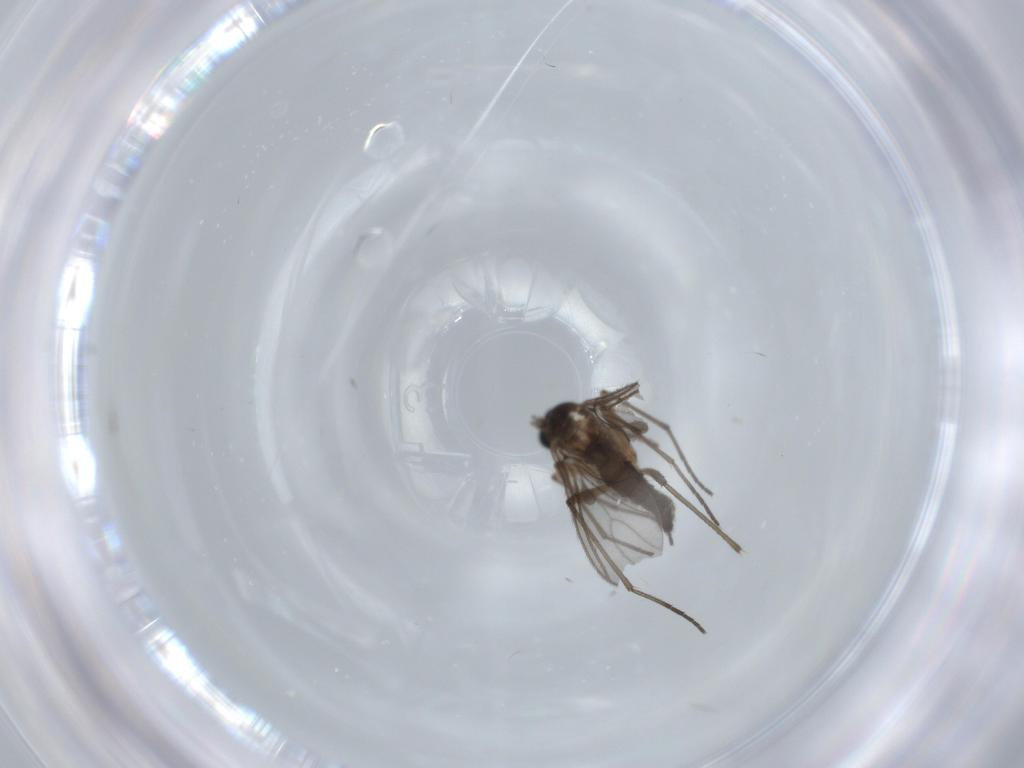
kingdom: Animalia
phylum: Arthropoda
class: Insecta
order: Diptera
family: Sciaridae
